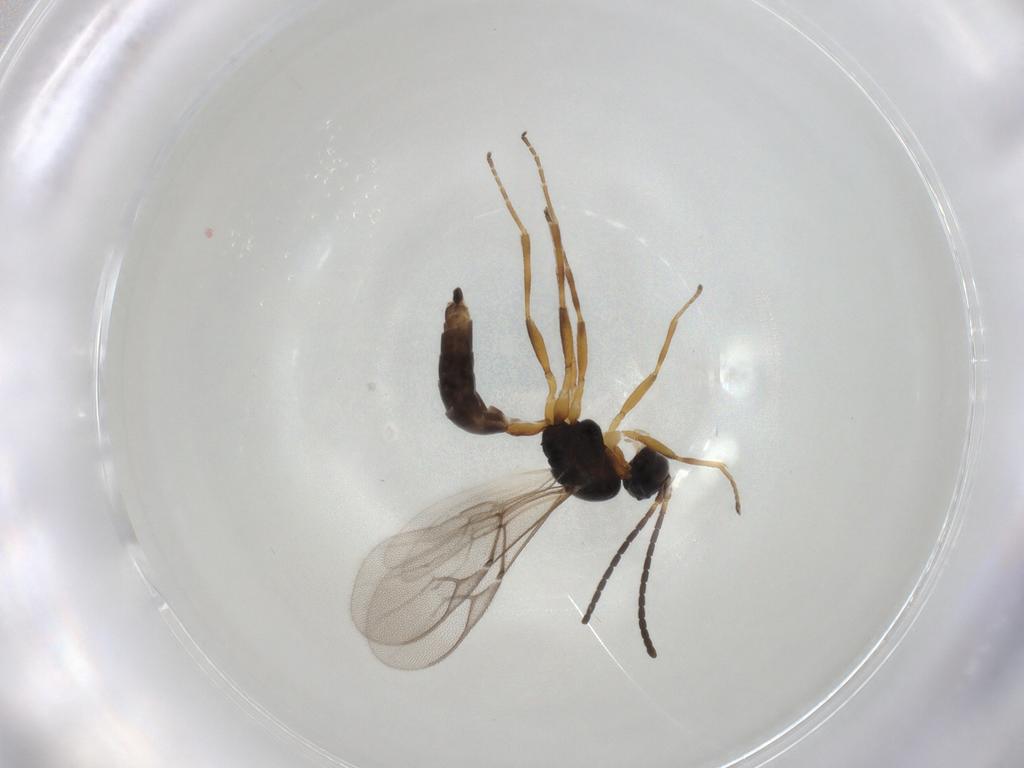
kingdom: Animalia
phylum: Arthropoda
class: Insecta
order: Hymenoptera
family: Braconidae
